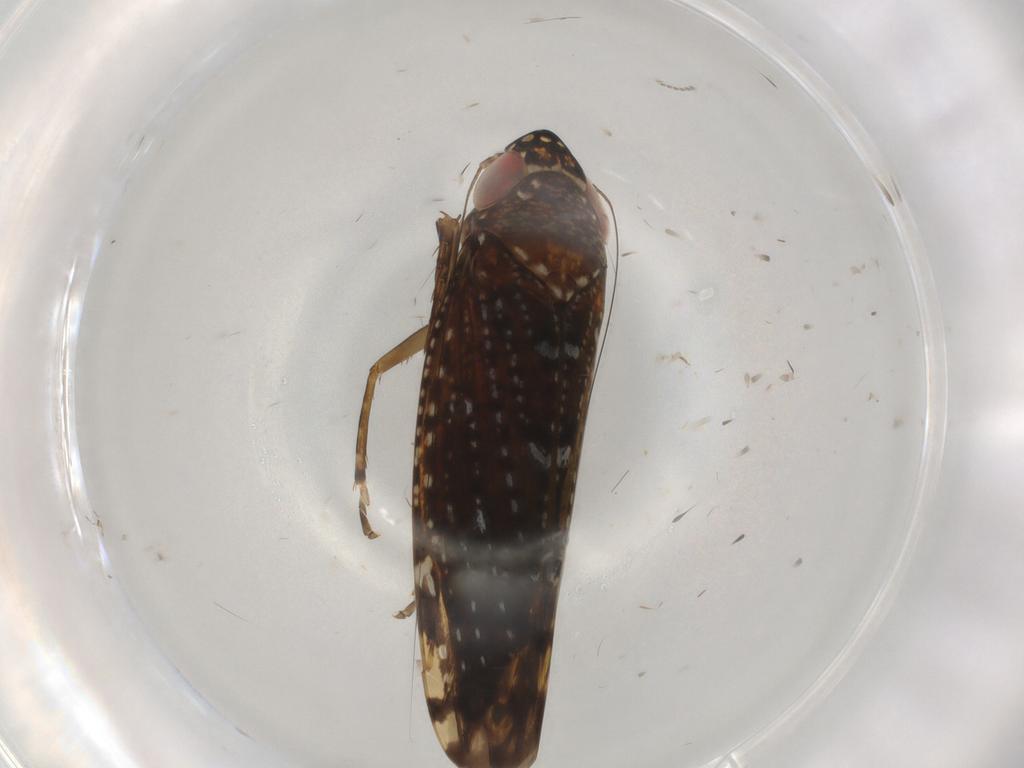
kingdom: Animalia
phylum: Arthropoda
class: Insecta
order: Hemiptera
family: Cicadellidae
